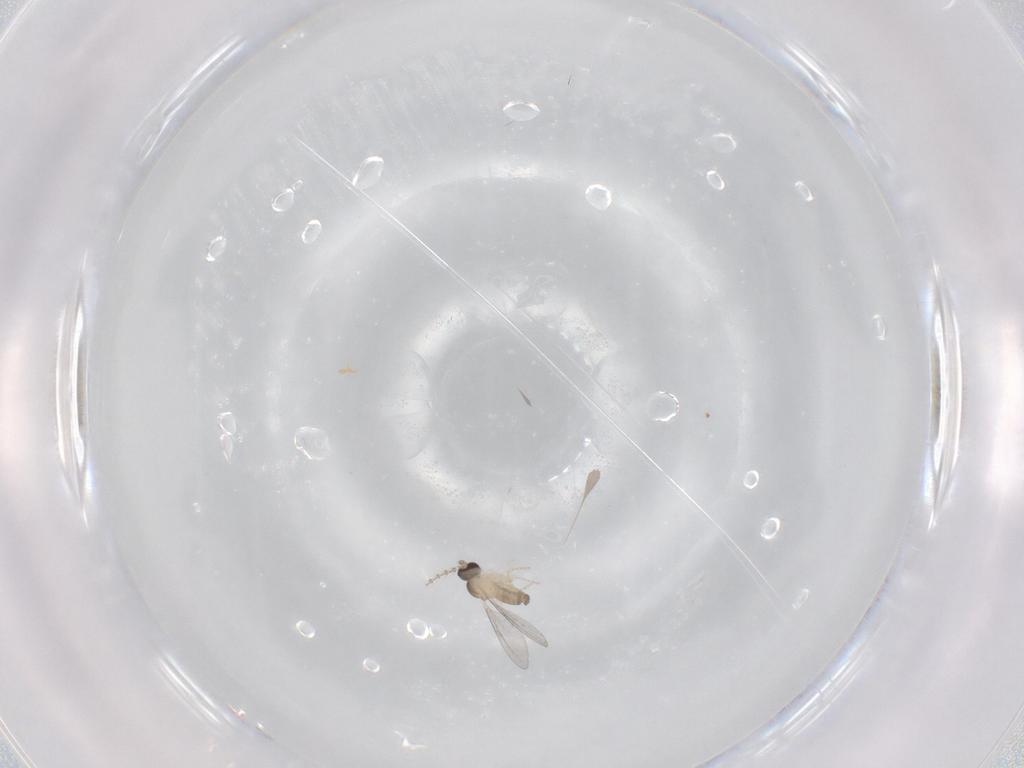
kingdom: Animalia
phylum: Arthropoda
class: Insecta
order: Diptera
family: Cecidomyiidae
